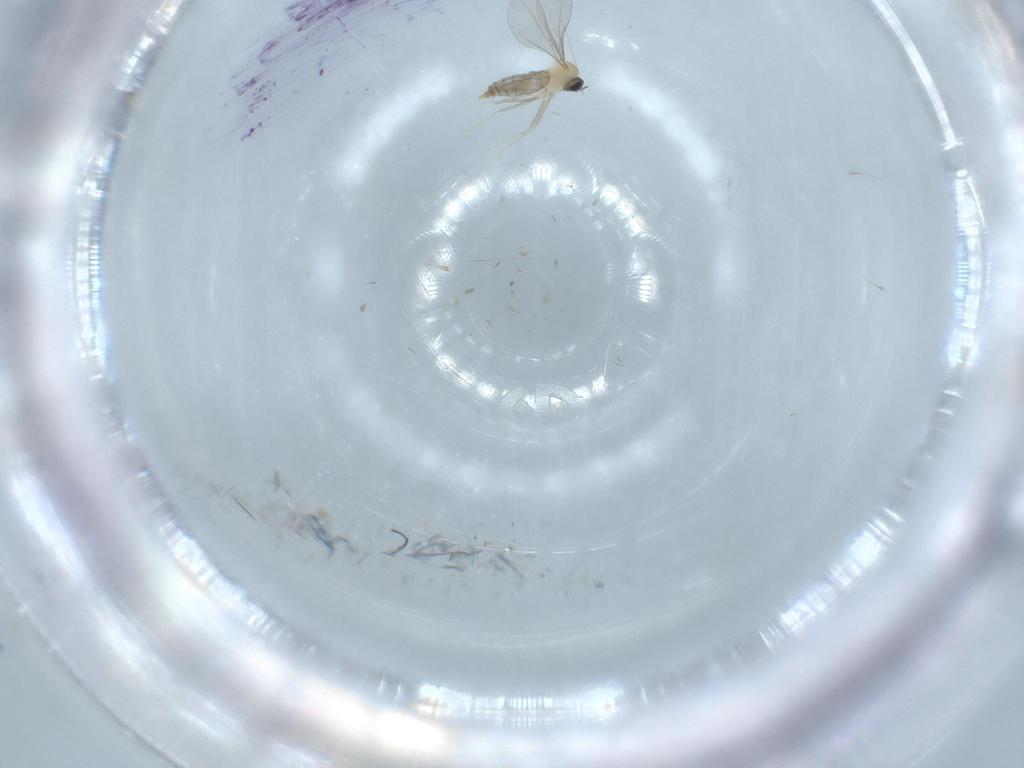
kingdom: Animalia
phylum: Arthropoda
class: Insecta
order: Diptera
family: Cecidomyiidae
